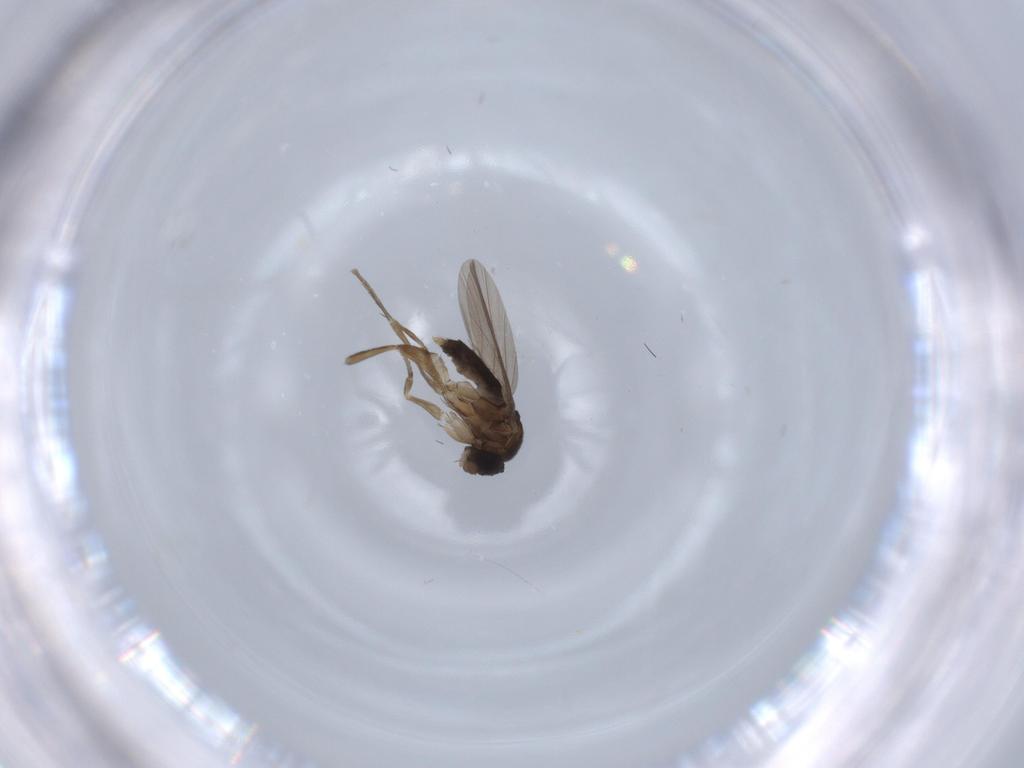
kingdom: Animalia
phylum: Arthropoda
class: Insecta
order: Diptera
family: Phoridae
